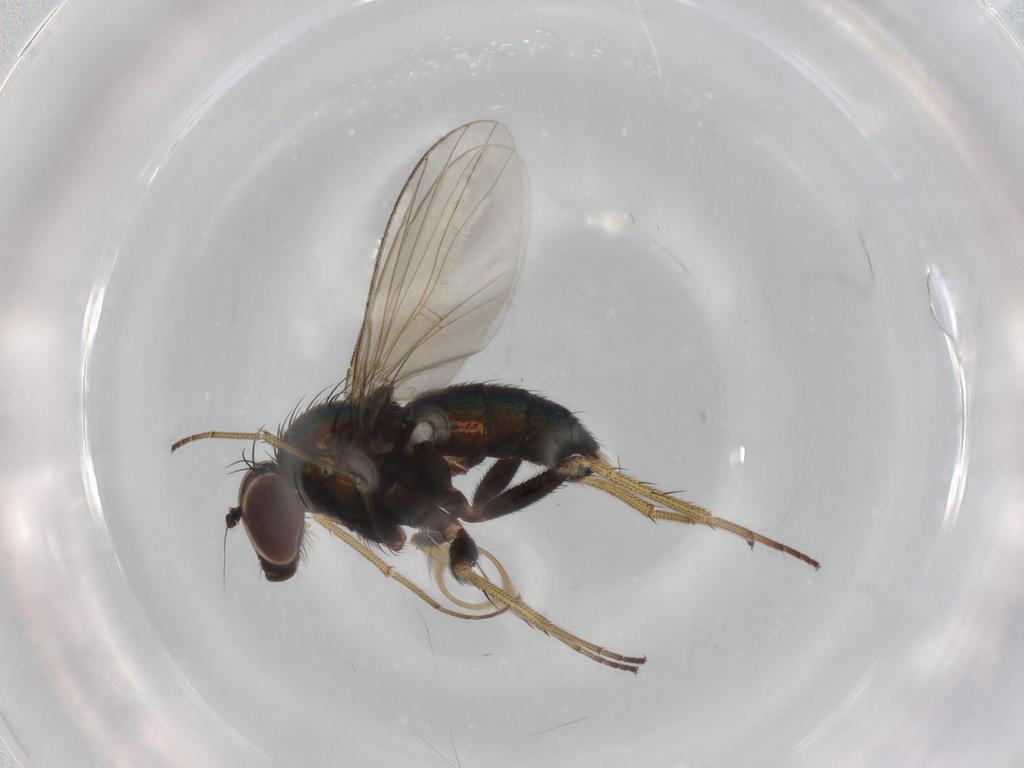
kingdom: Animalia
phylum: Arthropoda
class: Insecta
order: Diptera
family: Dolichopodidae
